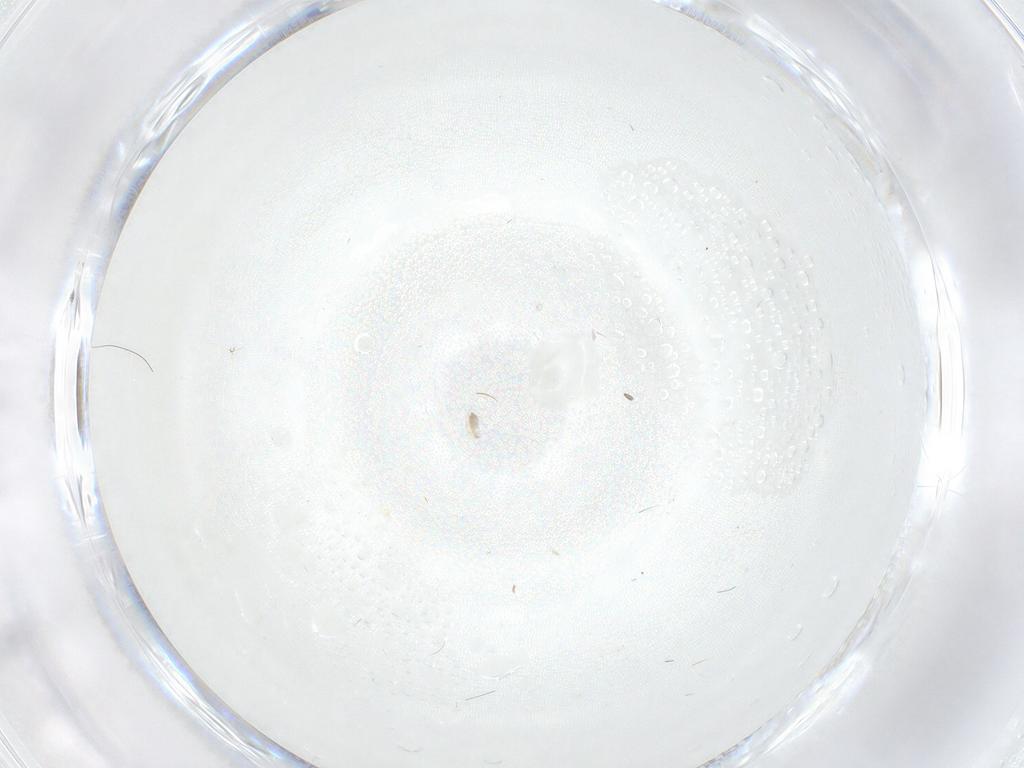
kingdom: Animalia
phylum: Arthropoda
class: Insecta
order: Diptera
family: Cecidomyiidae
